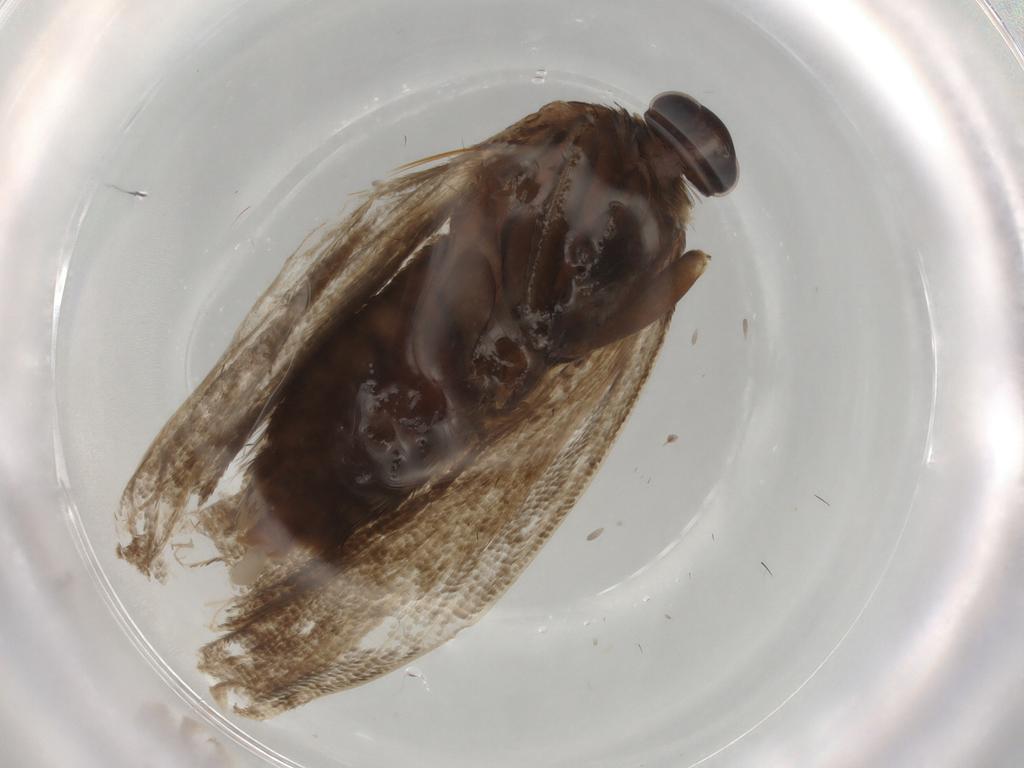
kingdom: Animalia
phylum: Arthropoda
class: Insecta
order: Lepidoptera
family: Tortricidae
